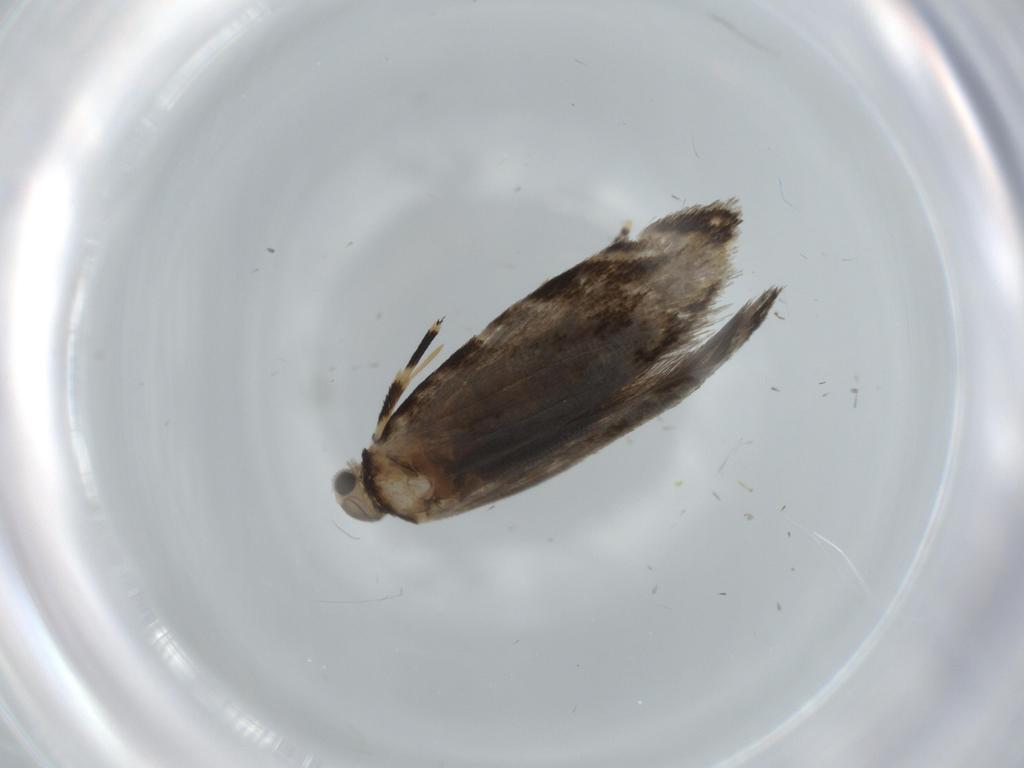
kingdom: Animalia
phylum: Arthropoda
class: Insecta
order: Lepidoptera
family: Tineidae
